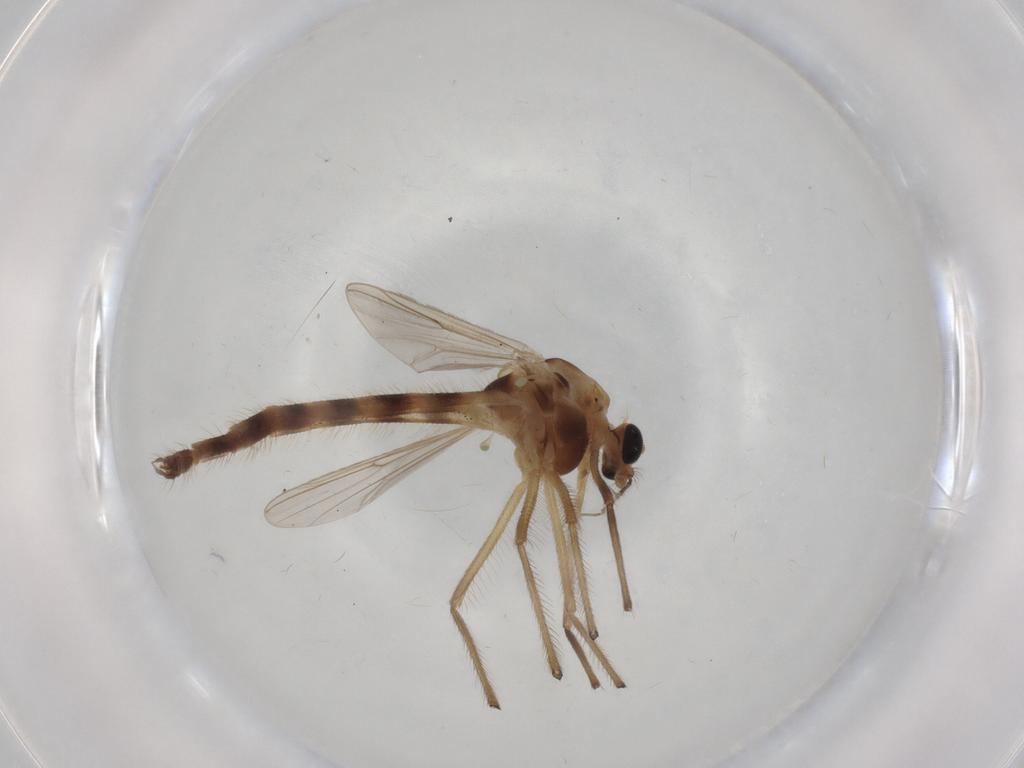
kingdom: Animalia
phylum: Arthropoda
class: Insecta
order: Diptera
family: Chironomidae
